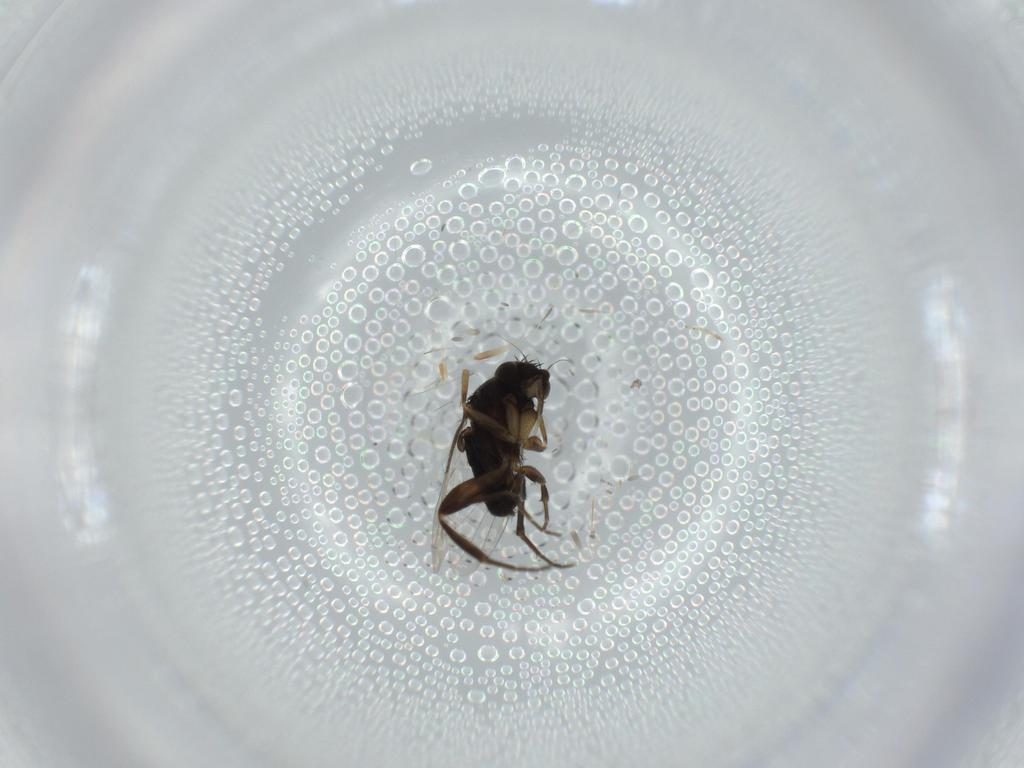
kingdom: Animalia
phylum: Arthropoda
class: Insecta
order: Diptera
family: Phoridae
